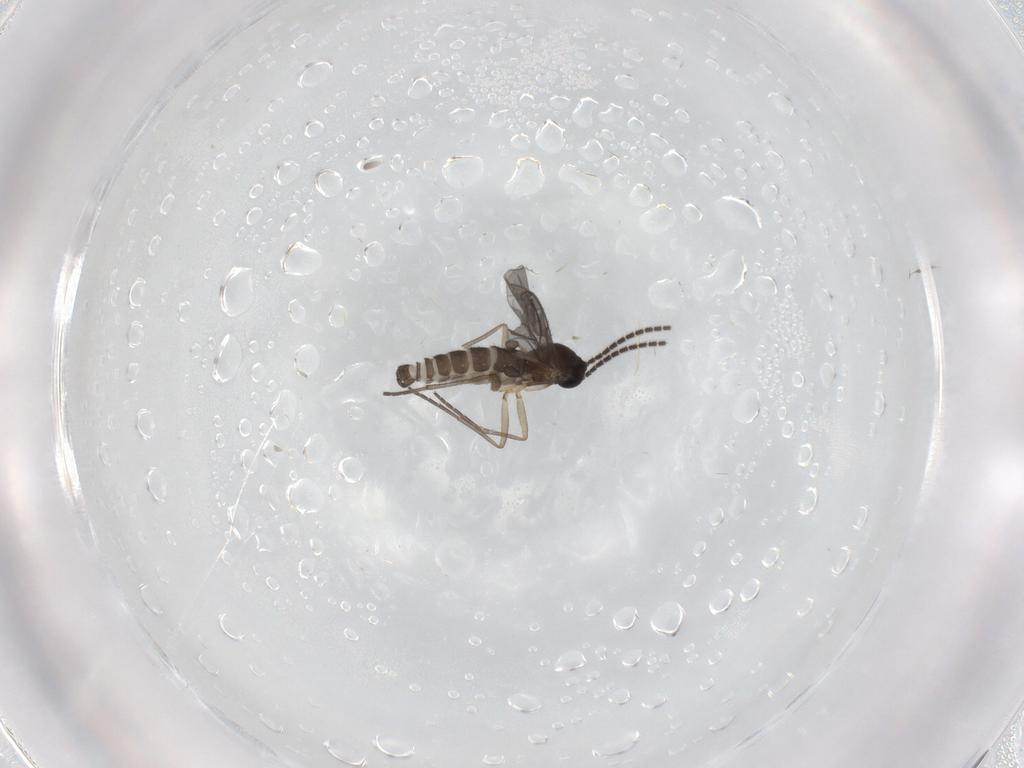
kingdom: Animalia
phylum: Arthropoda
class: Insecta
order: Diptera
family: Sciaridae
